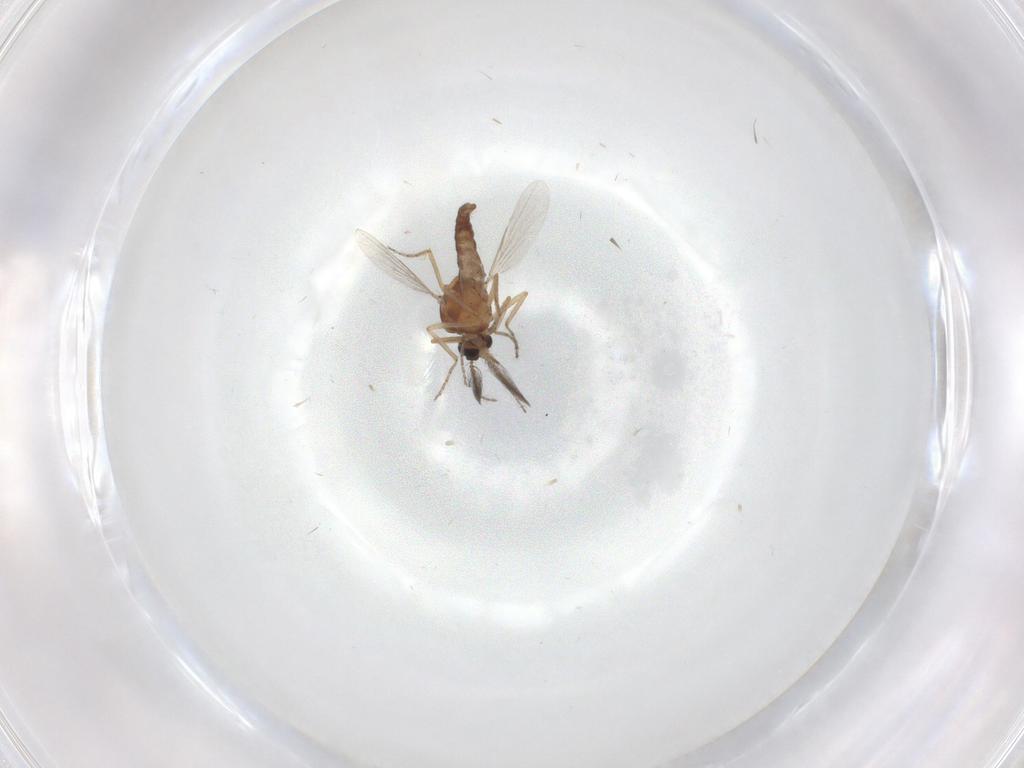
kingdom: Animalia
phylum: Arthropoda
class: Insecta
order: Diptera
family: Ceratopogonidae
